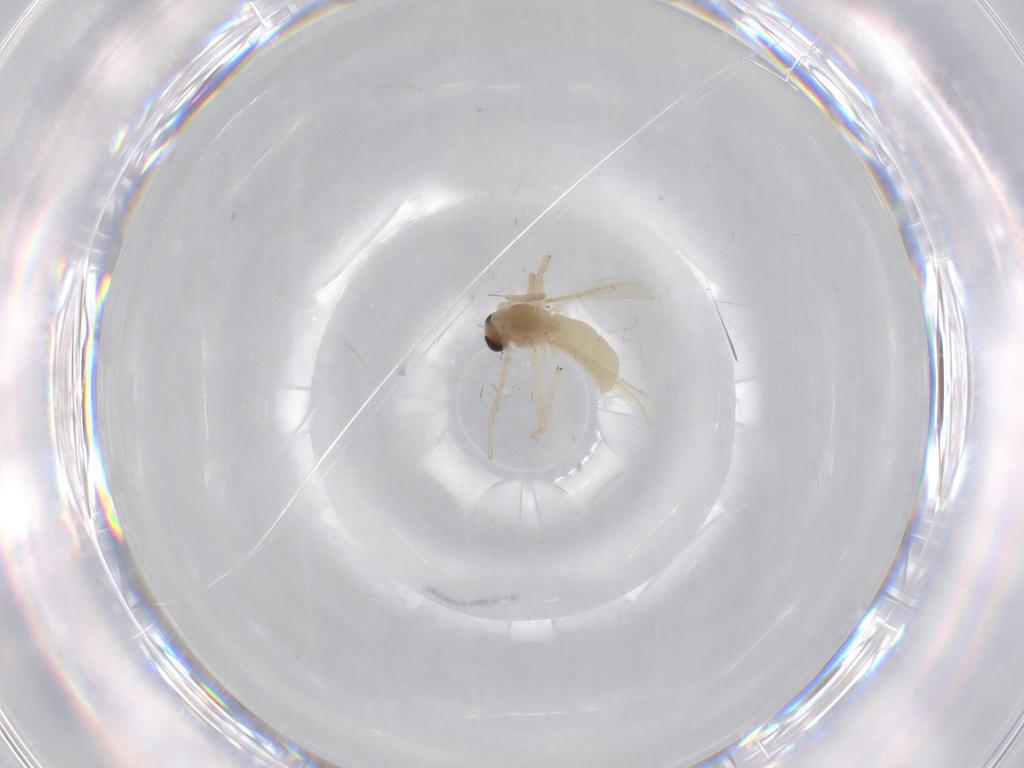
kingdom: Animalia
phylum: Arthropoda
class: Insecta
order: Diptera
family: Chironomidae
